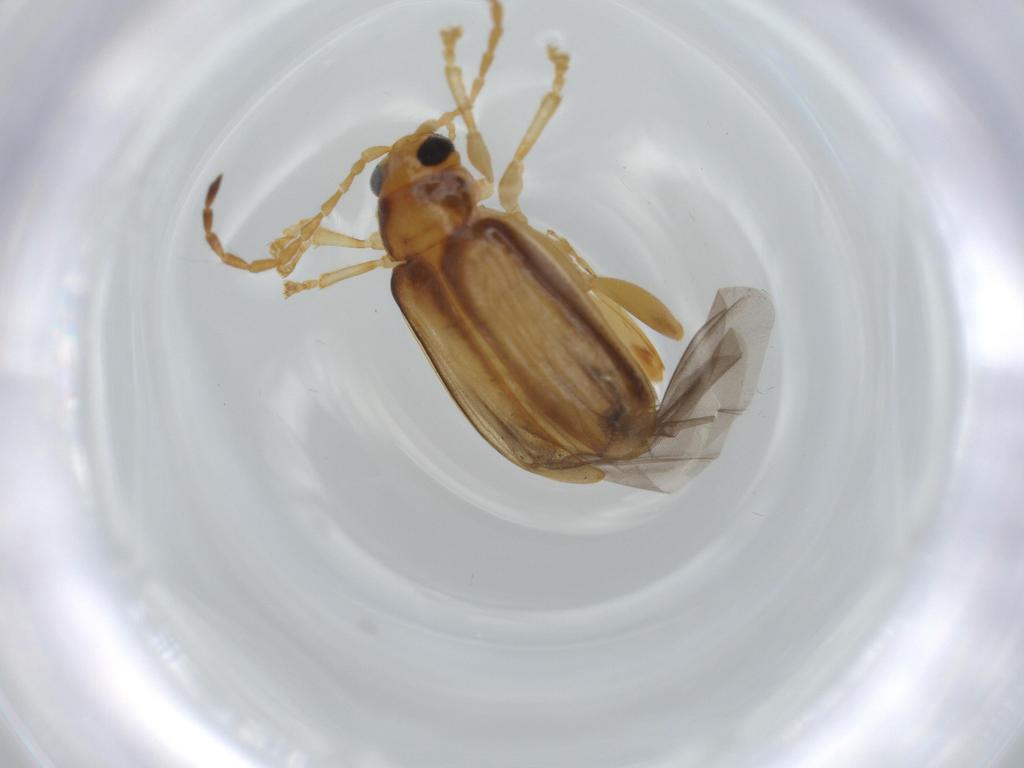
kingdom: Animalia
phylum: Arthropoda
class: Insecta
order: Coleoptera
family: Chrysomelidae
